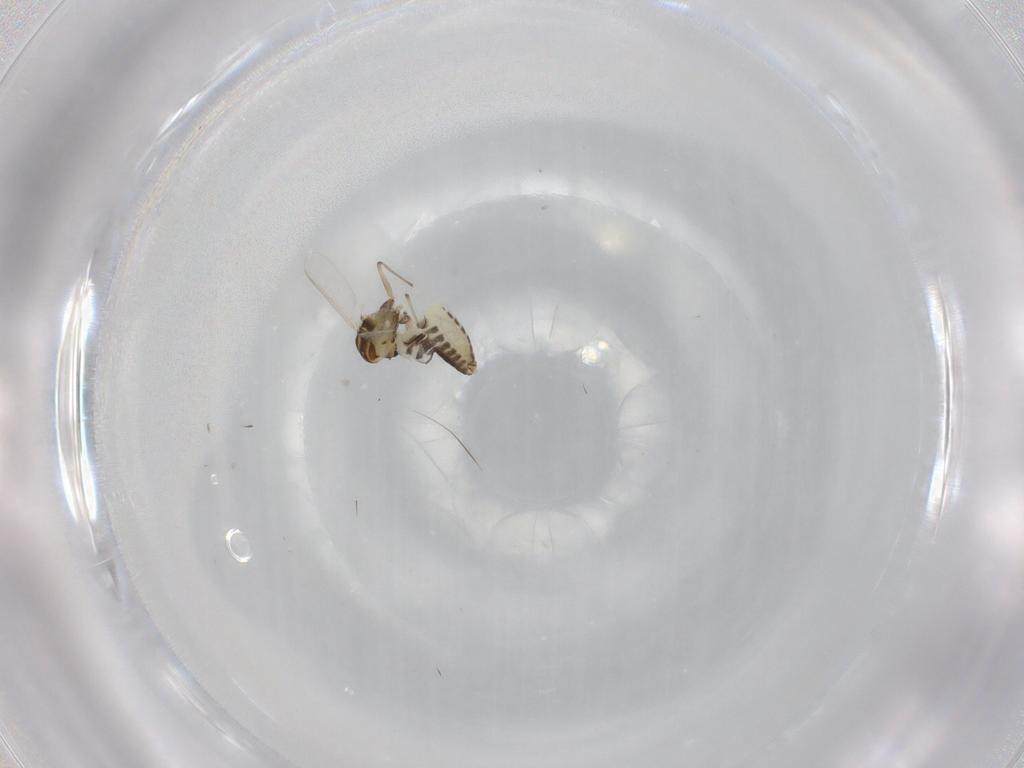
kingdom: Animalia
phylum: Arthropoda
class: Insecta
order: Diptera
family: Chironomidae
